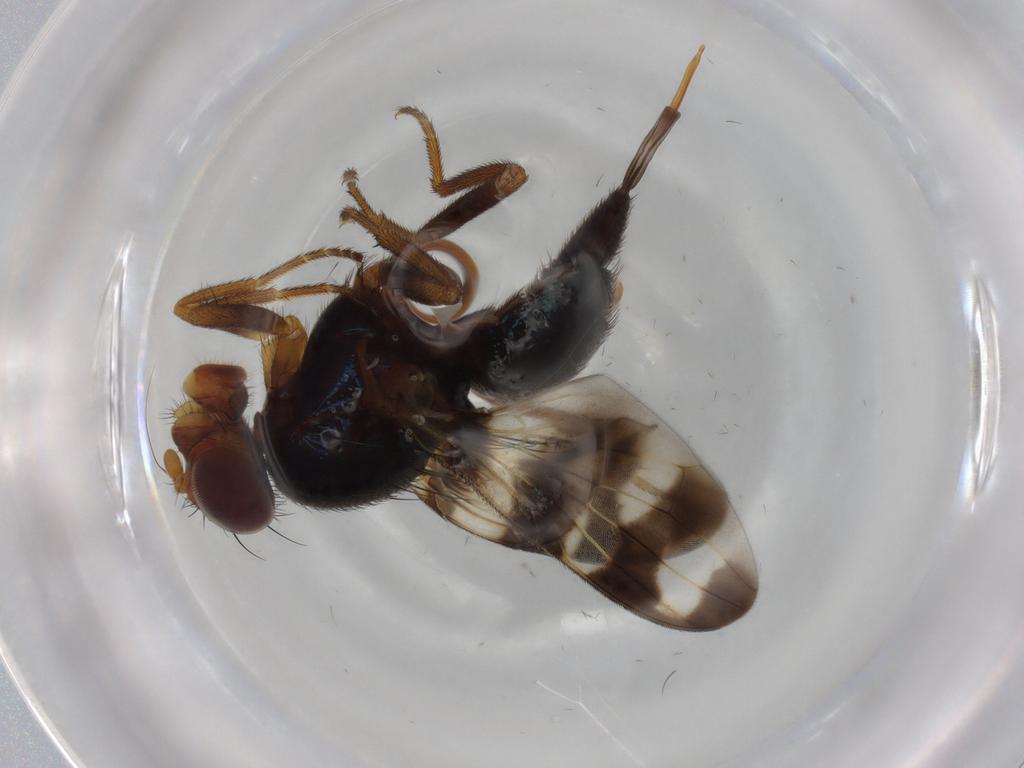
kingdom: Animalia
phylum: Arthropoda
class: Insecta
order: Diptera
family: Ulidiidae
